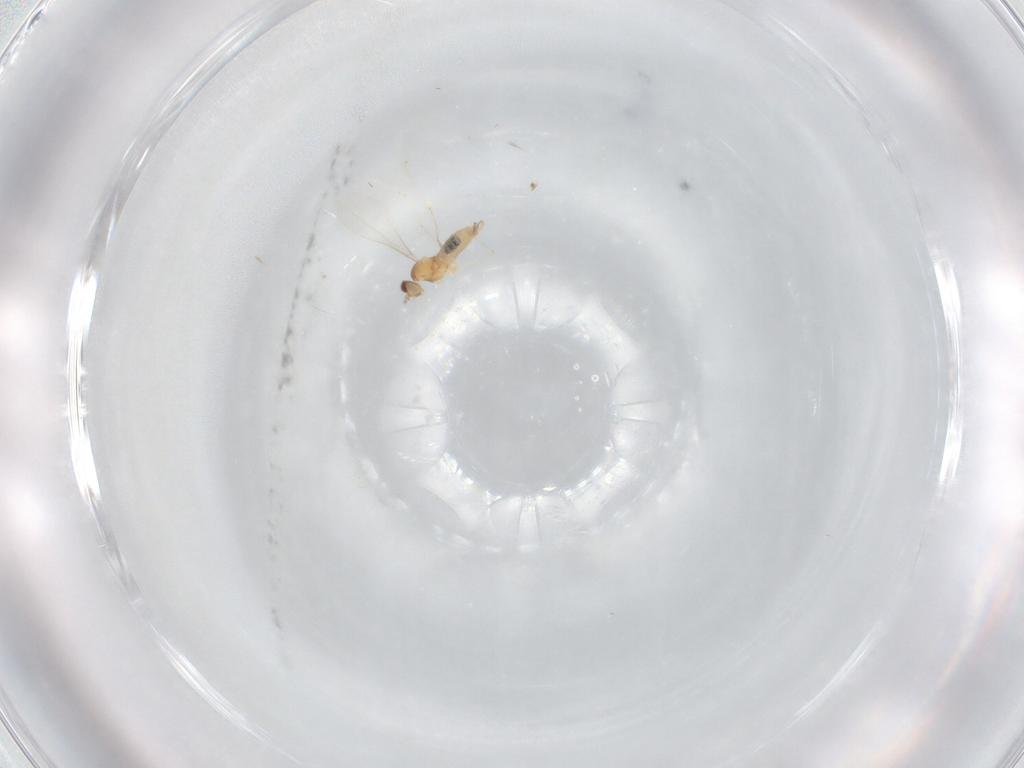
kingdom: Animalia
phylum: Arthropoda
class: Insecta
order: Diptera
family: Cecidomyiidae
